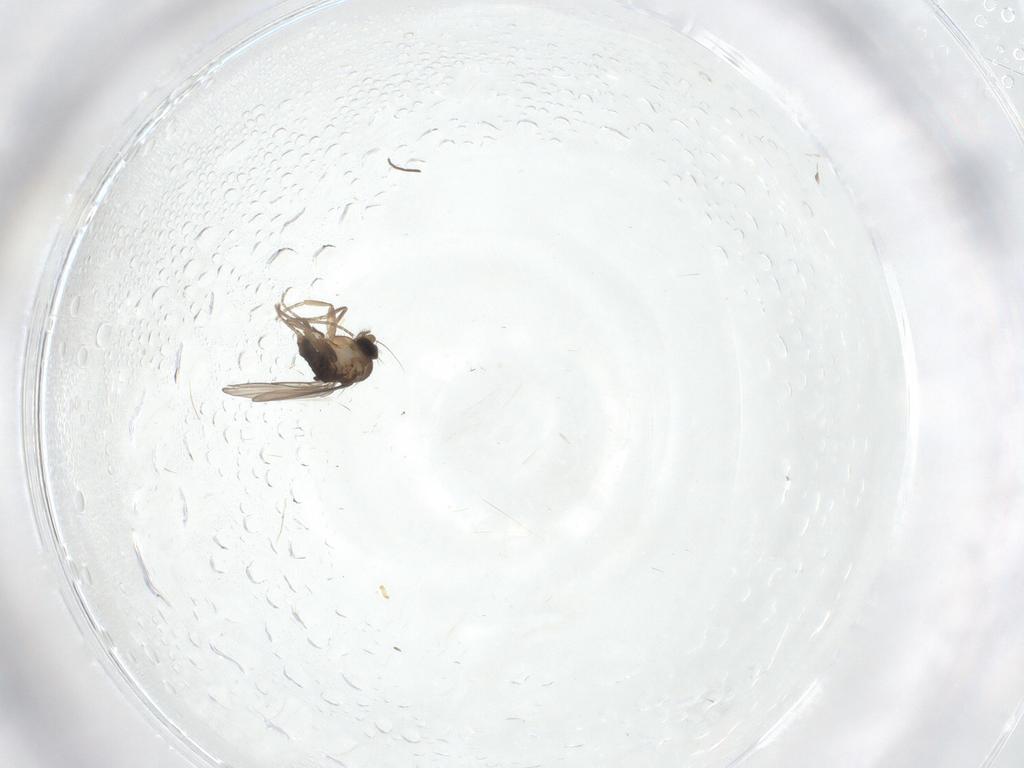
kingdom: Animalia
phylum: Arthropoda
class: Insecta
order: Diptera
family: Phoridae
